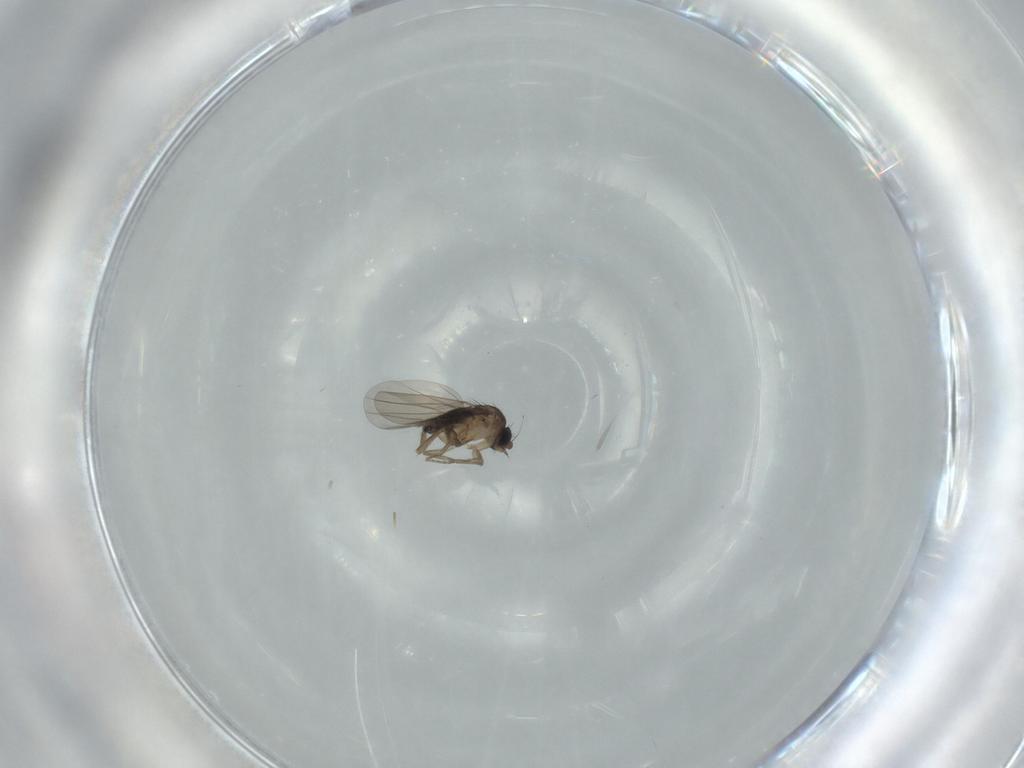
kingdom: Animalia
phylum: Arthropoda
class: Insecta
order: Diptera
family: Phoridae
